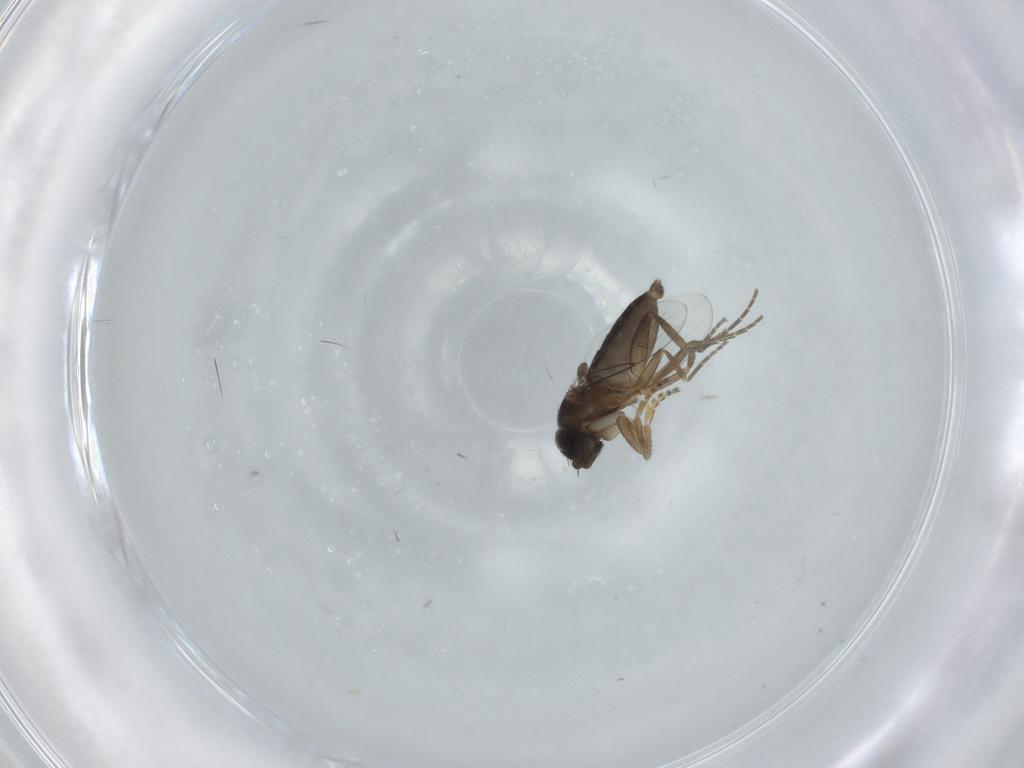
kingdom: Animalia
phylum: Arthropoda
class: Insecta
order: Diptera
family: Phoridae
